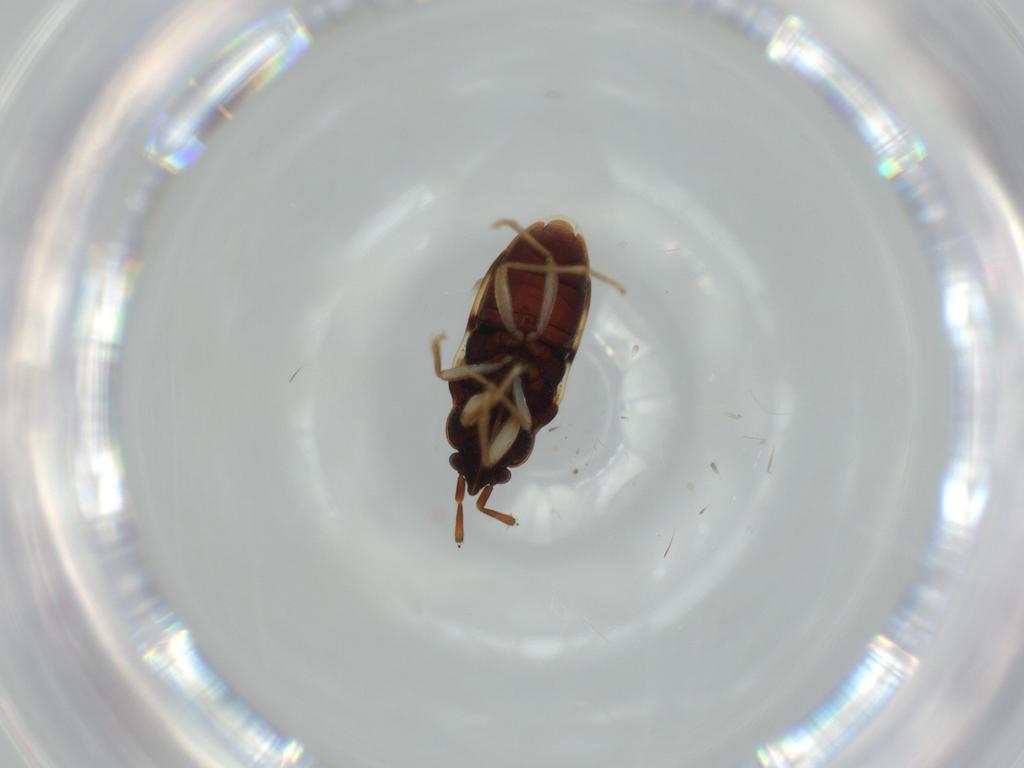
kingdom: Animalia
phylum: Arthropoda
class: Insecta
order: Hemiptera
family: Rhyparochromidae
